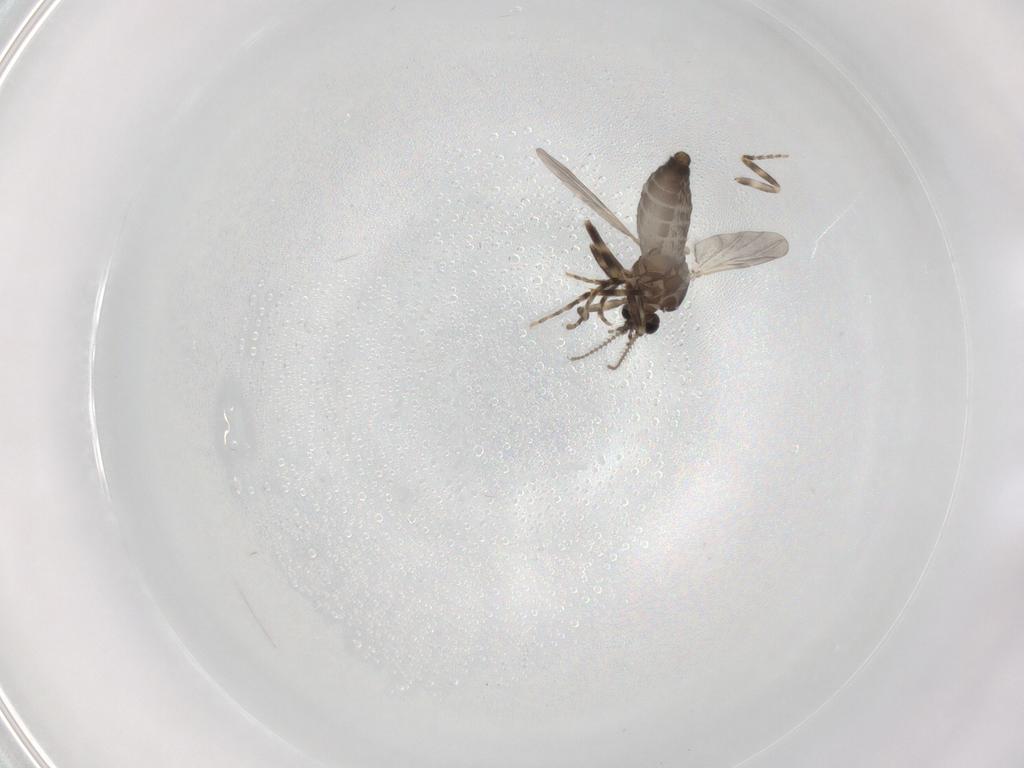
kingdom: Animalia
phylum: Arthropoda
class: Insecta
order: Diptera
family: Ceratopogonidae
